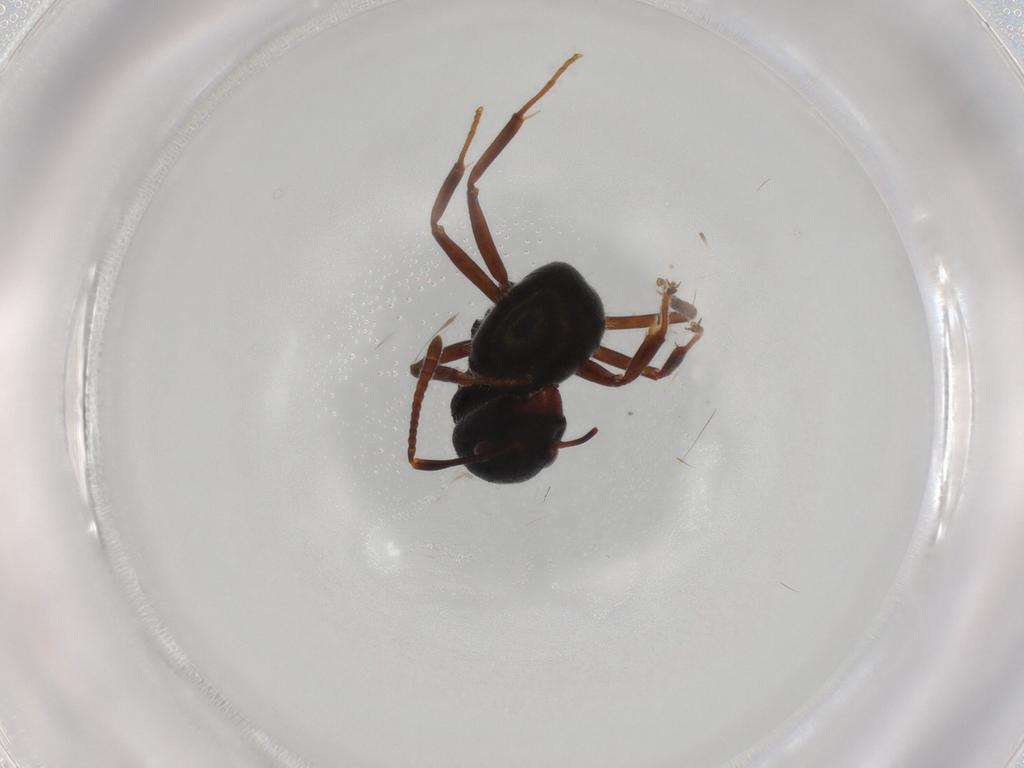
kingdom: Animalia
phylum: Arthropoda
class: Insecta
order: Hymenoptera
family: Formicidae
